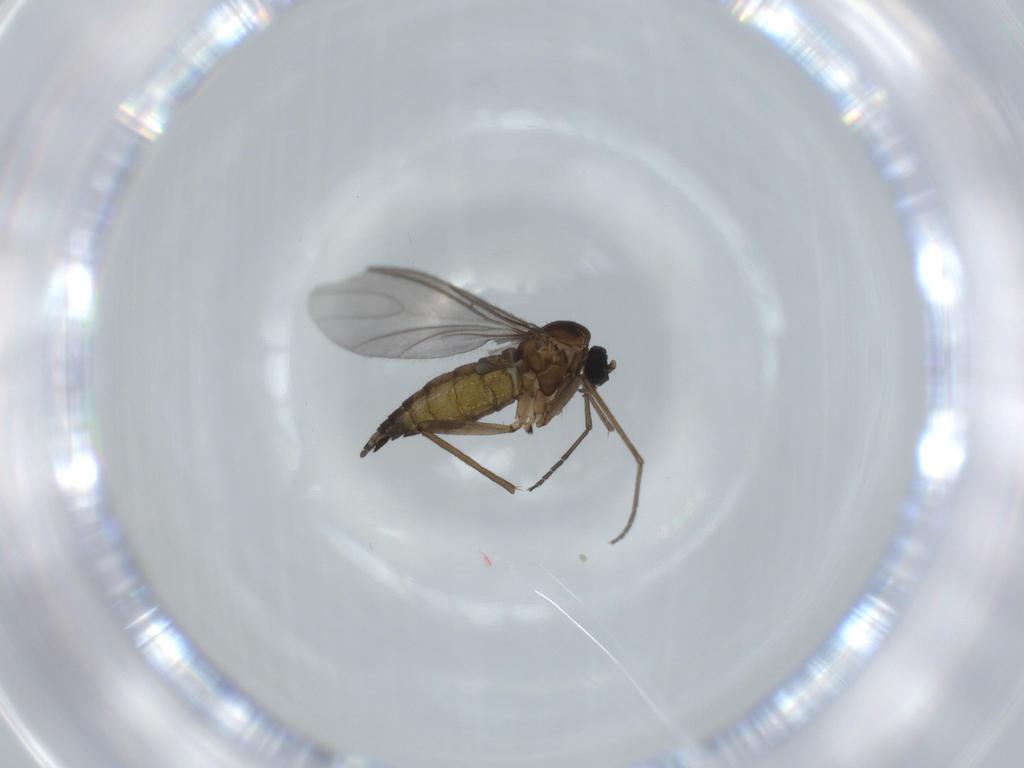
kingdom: Animalia
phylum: Arthropoda
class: Insecta
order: Diptera
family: Sciaridae
